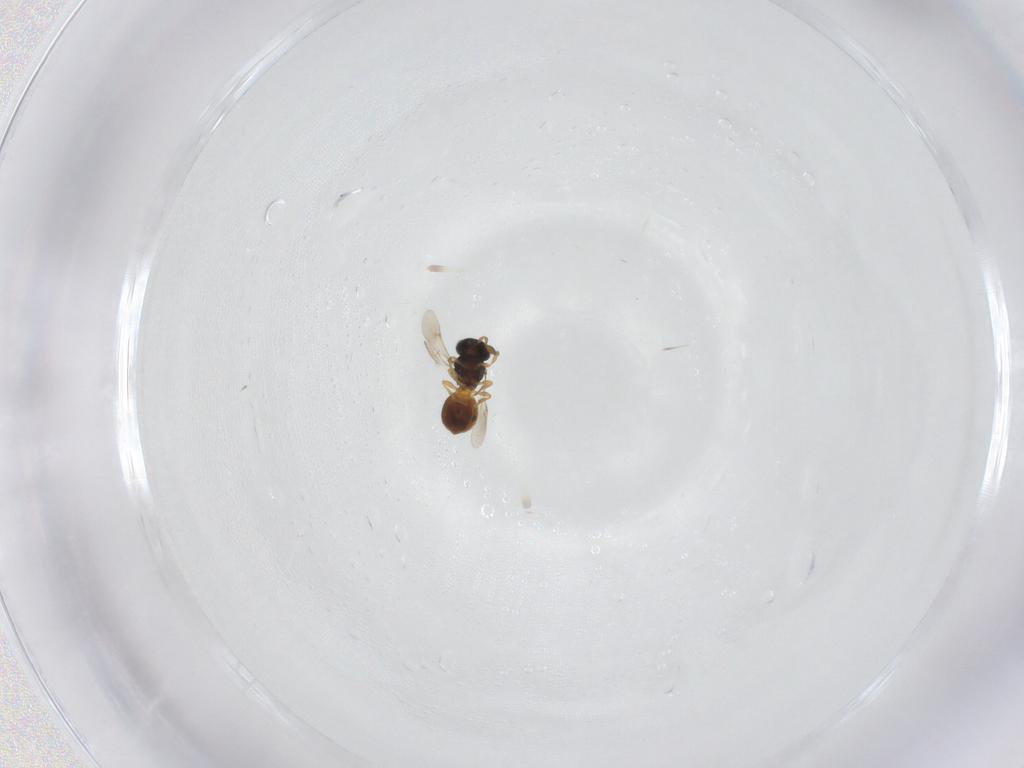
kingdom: Animalia
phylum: Arthropoda
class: Insecta
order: Hymenoptera
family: Scelionidae
